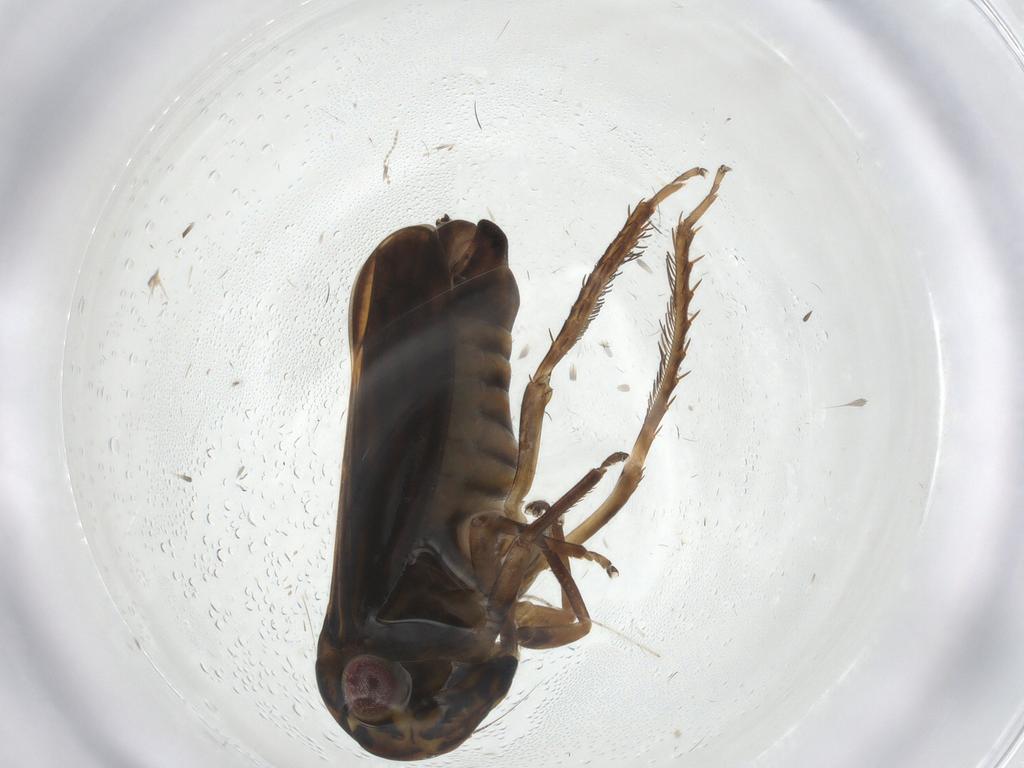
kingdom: Animalia
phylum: Arthropoda
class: Insecta
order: Hemiptera
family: Cicadellidae
